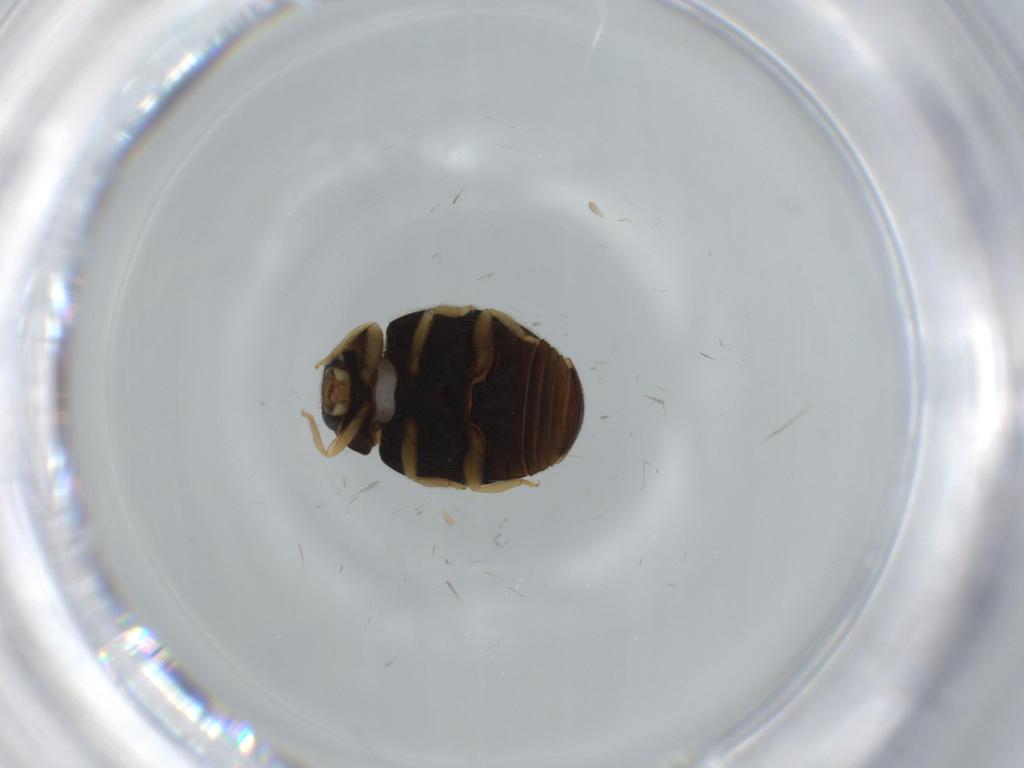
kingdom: Animalia
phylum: Arthropoda
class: Insecta
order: Coleoptera
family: Coccinellidae
